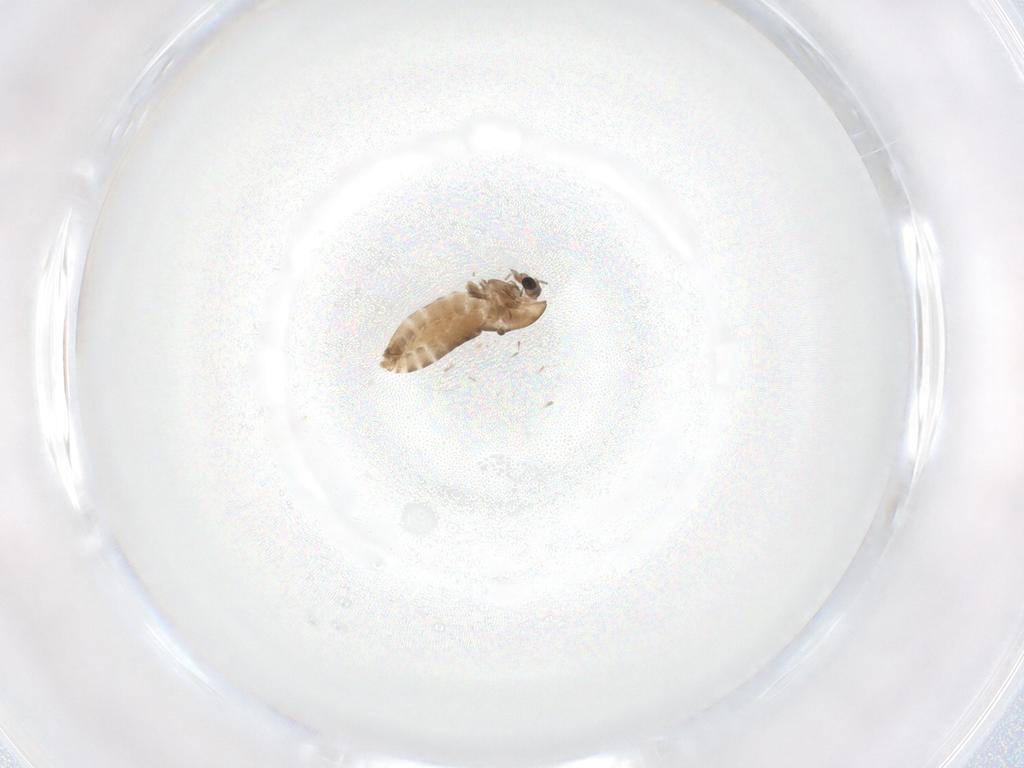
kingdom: Animalia
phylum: Arthropoda
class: Insecta
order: Diptera
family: Chironomidae
